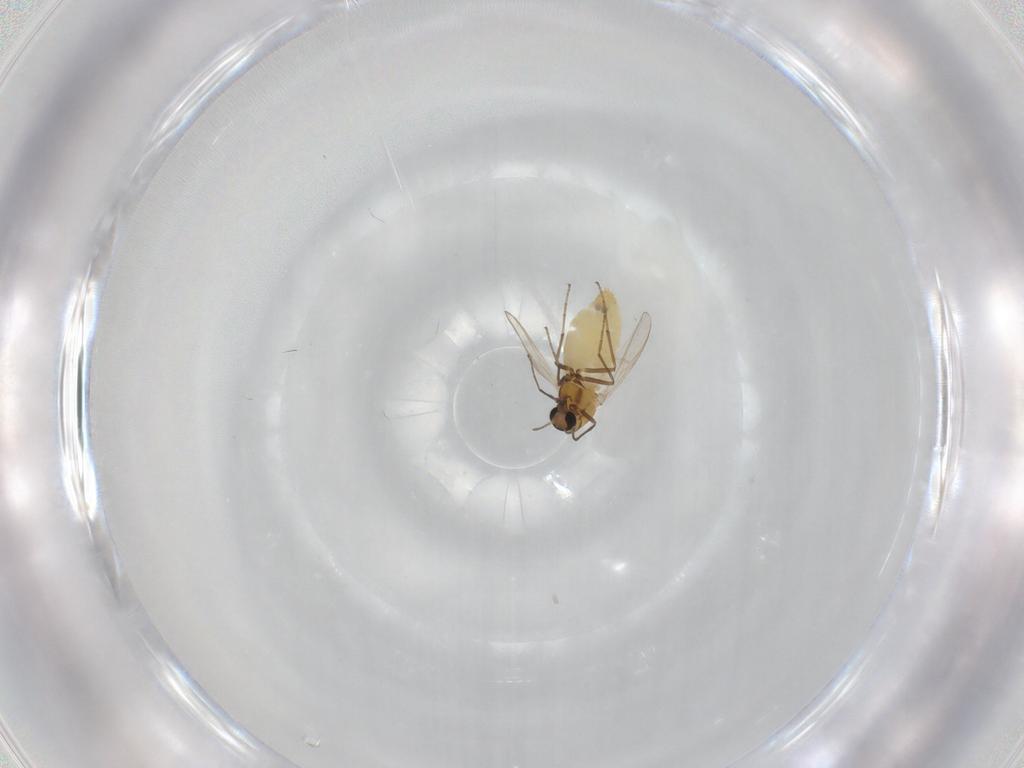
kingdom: Animalia
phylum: Arthropoda
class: Insecta
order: Diptera
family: Chironomidae
